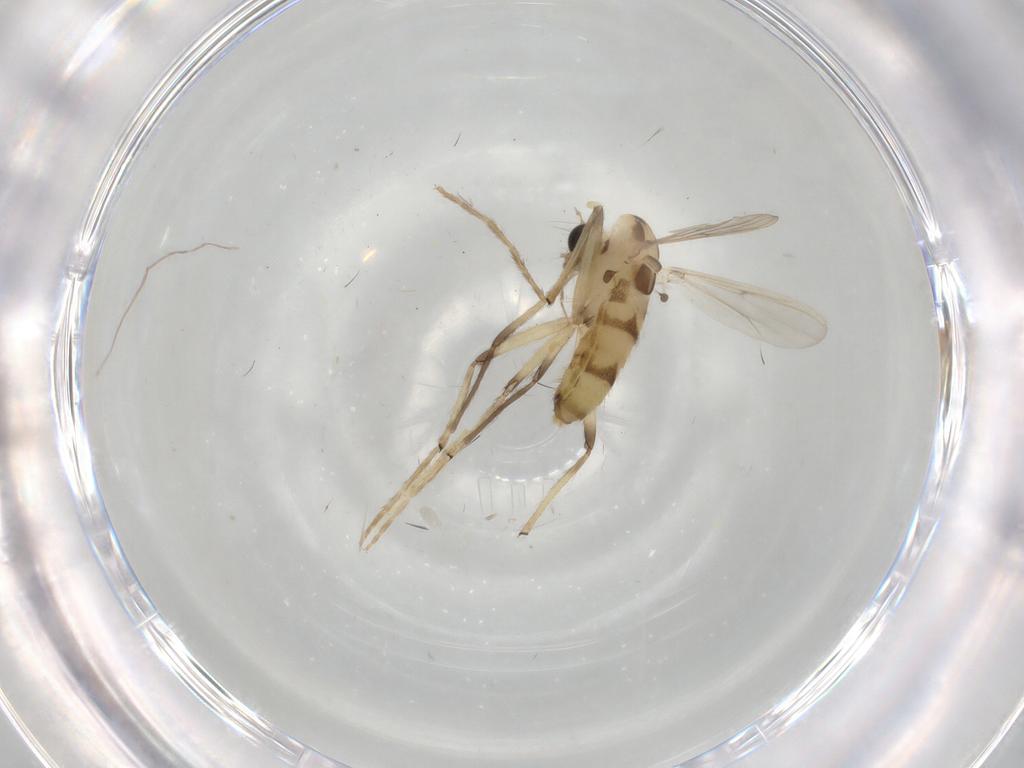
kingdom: Animalia
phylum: Arthropoda
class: Insecta
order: Diptera
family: Chironomidae
